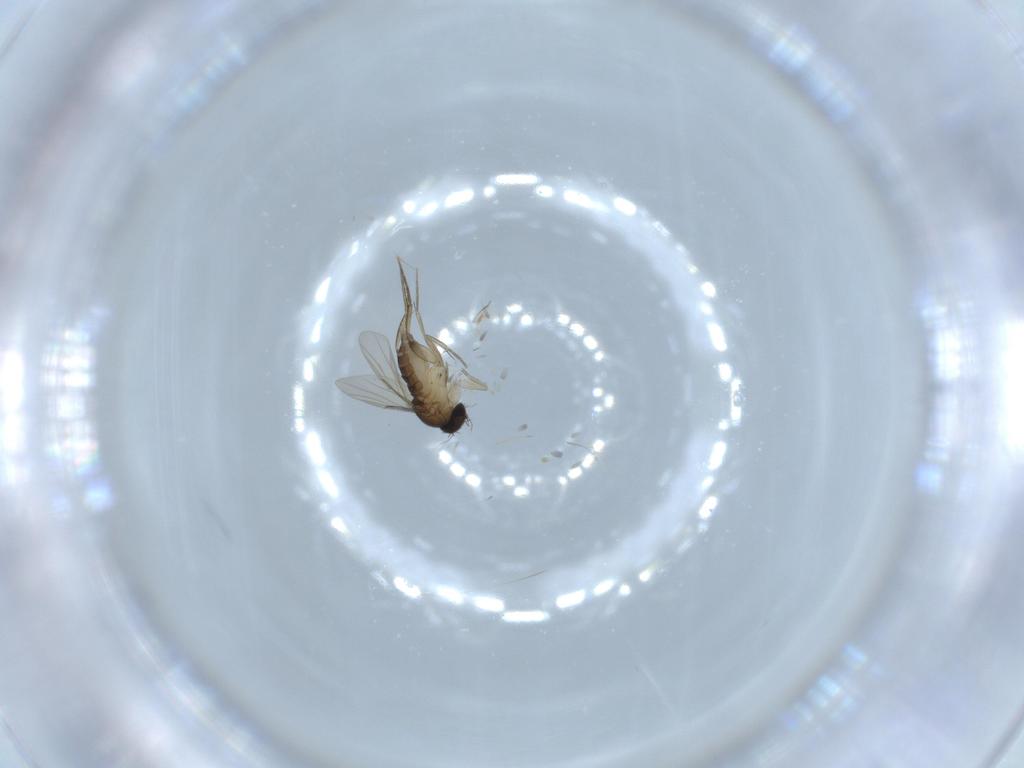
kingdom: Animalia
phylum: Arthropoda
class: Insecta
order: Diptera
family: Phoridae
